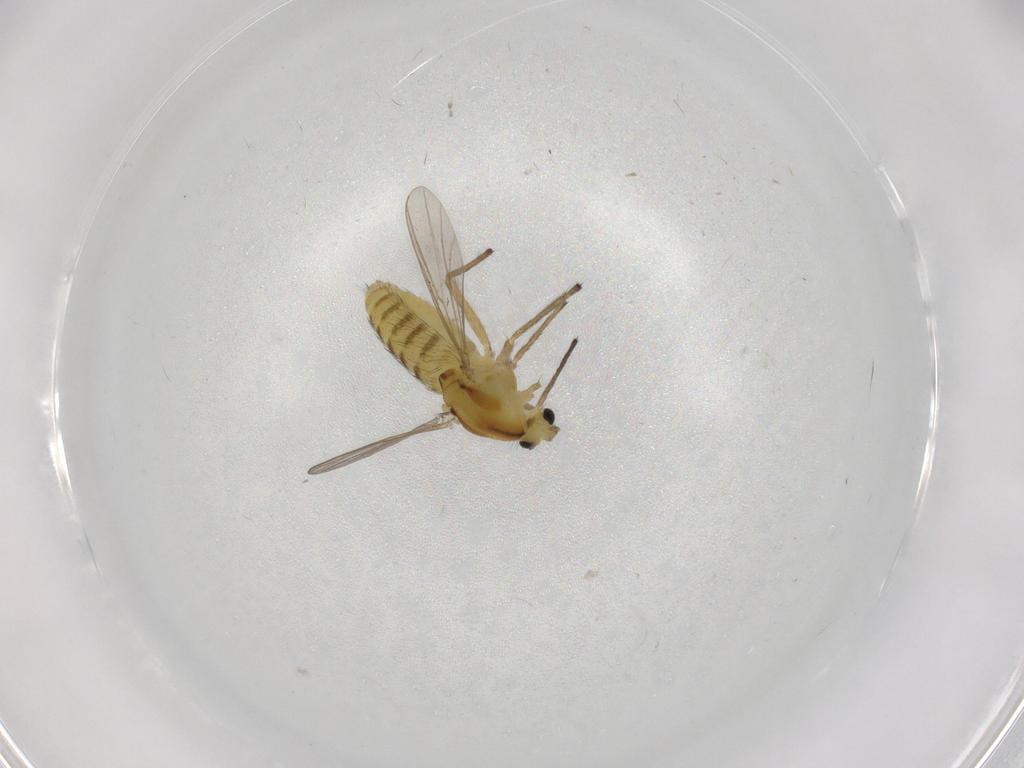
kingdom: Animalia
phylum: Arthropoda
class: Insecta
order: Diptera
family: Chironomidae
